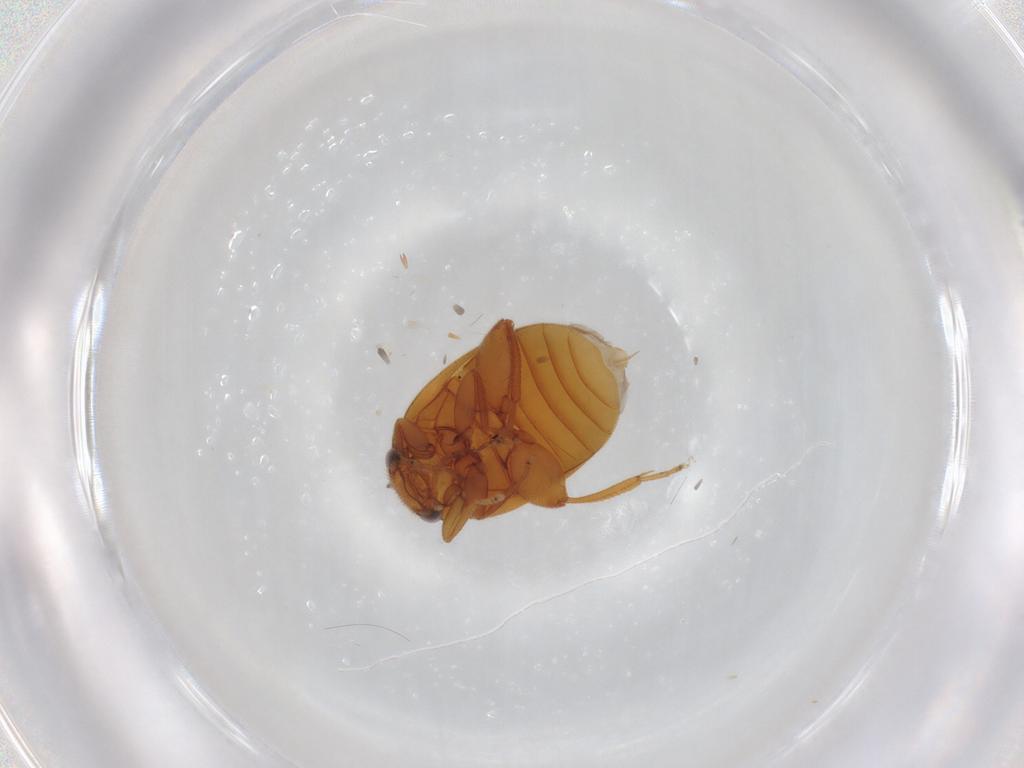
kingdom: Animalia
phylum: Arthropoda
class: Insecta
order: Coleoptera
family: Scirtidae
